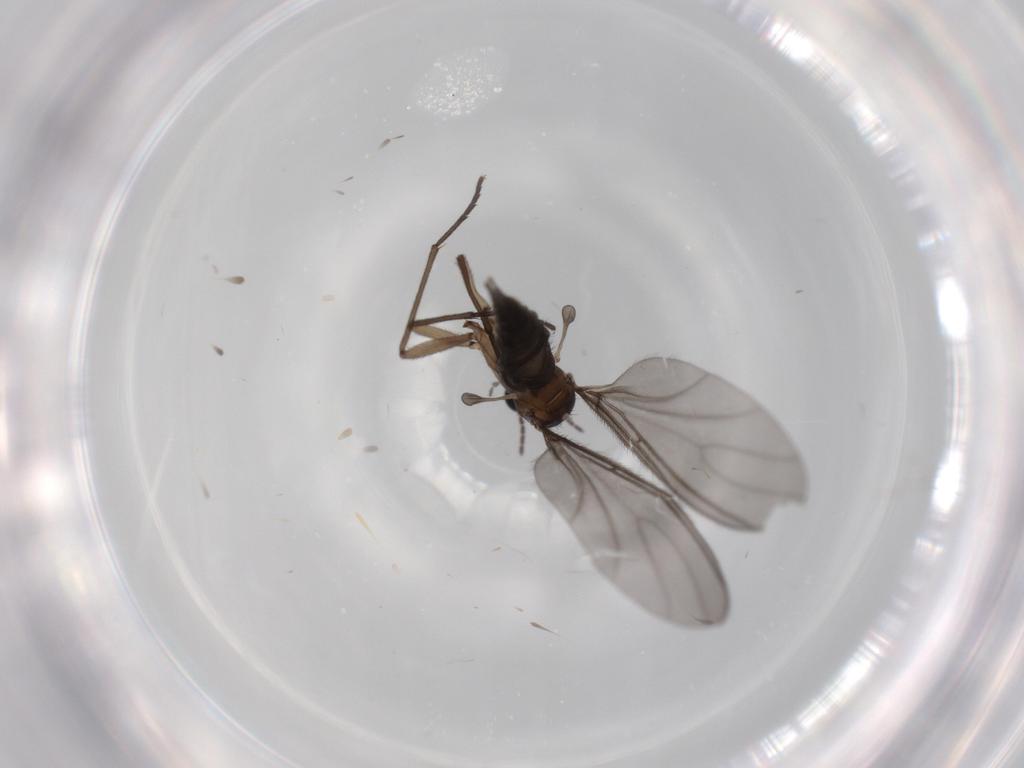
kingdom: Animalia
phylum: Arthropoda
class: Insecta
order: Diptera
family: Sciaridae
